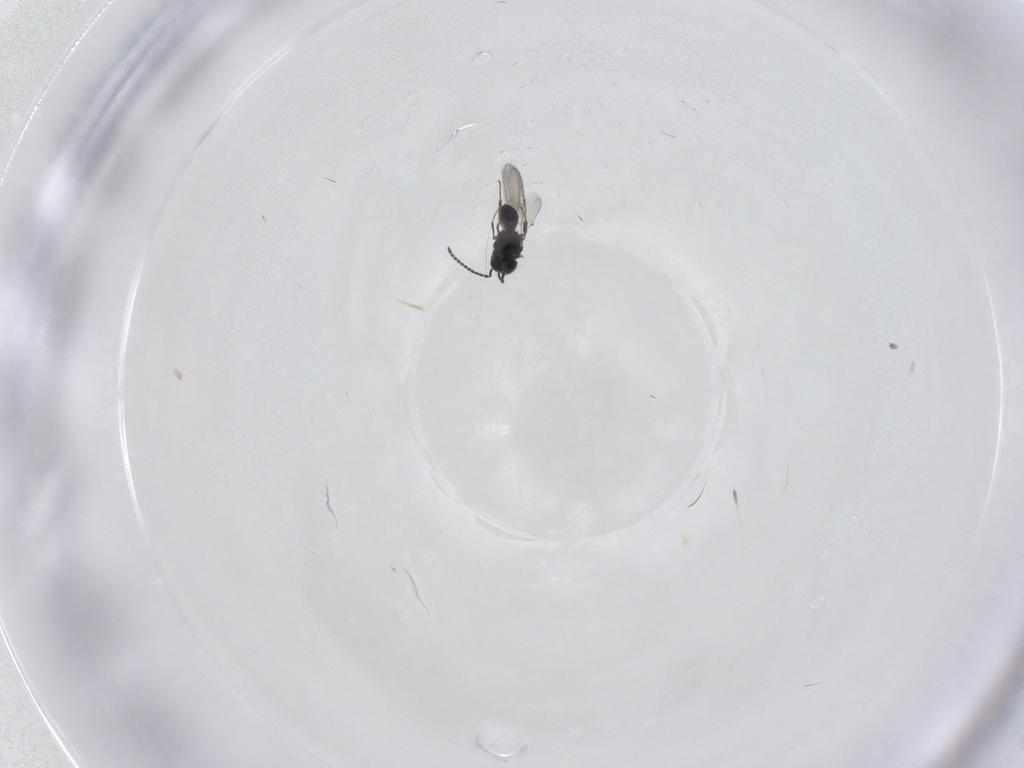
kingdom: Animalia
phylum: Arthropoda
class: Insecta
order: Hymenoptera
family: Scelionidae
